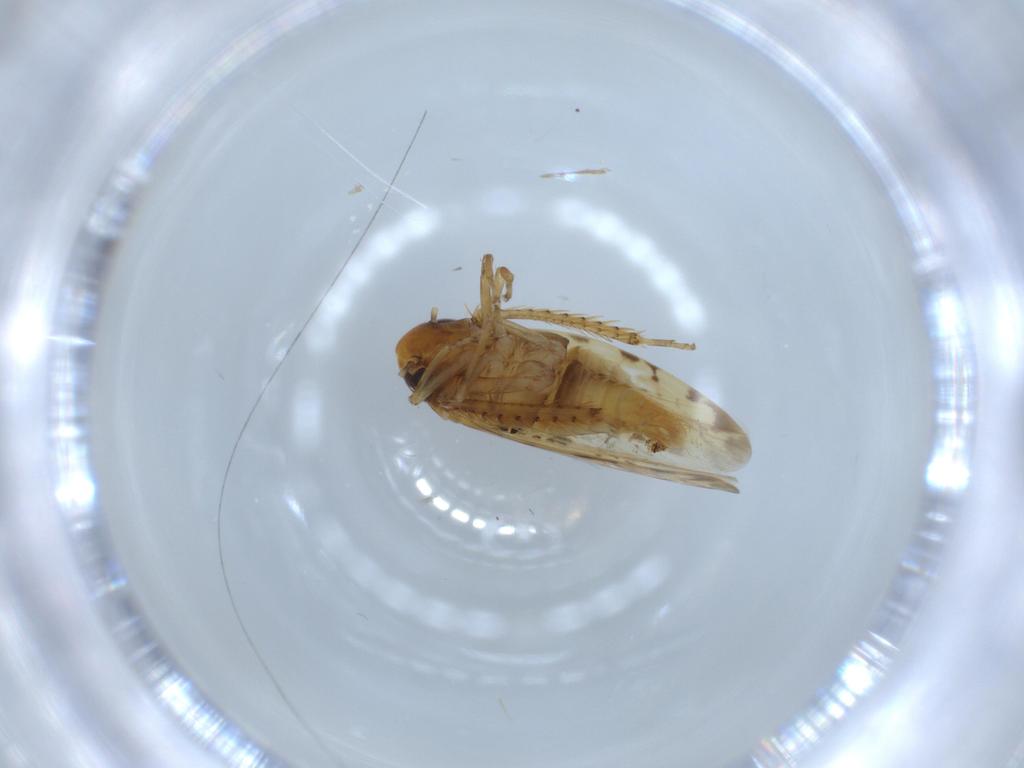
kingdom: Animalia
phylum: Arthropoda
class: Insecta
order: Hemiptera
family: Cicadellidae
